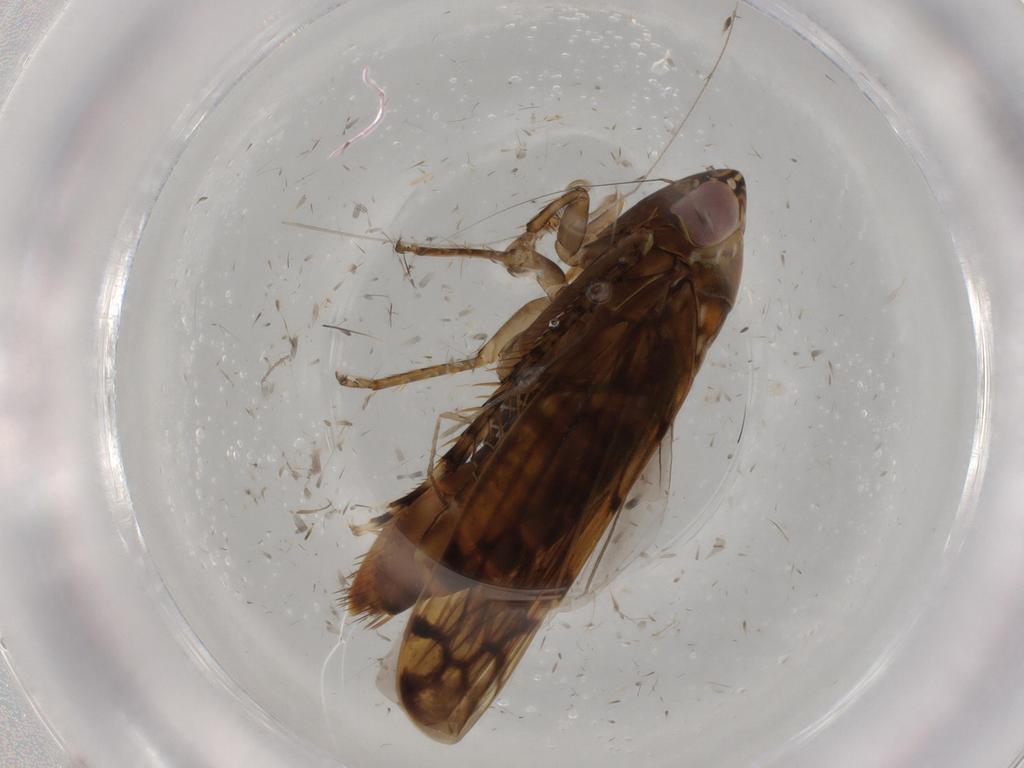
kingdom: Animalia
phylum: Arthropoda
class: Insecta
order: Hemiptera
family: Cicadellidae
